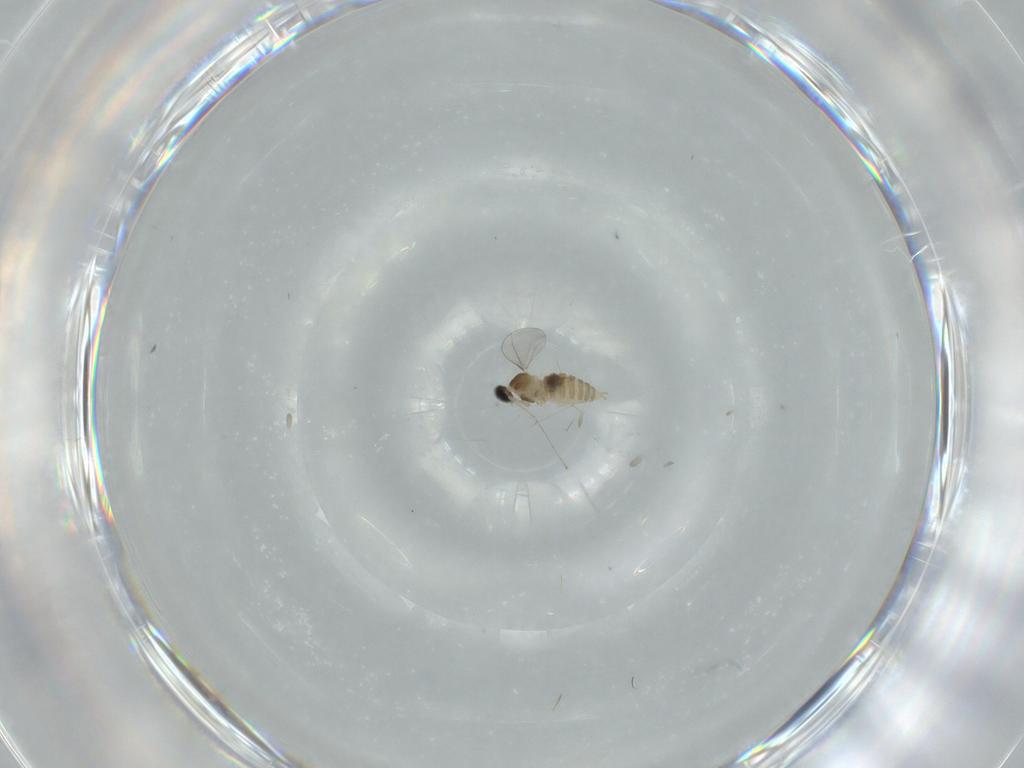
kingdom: Animalia
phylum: Arthropoda
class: Insecta
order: Diptera
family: Cecidomyiidae
